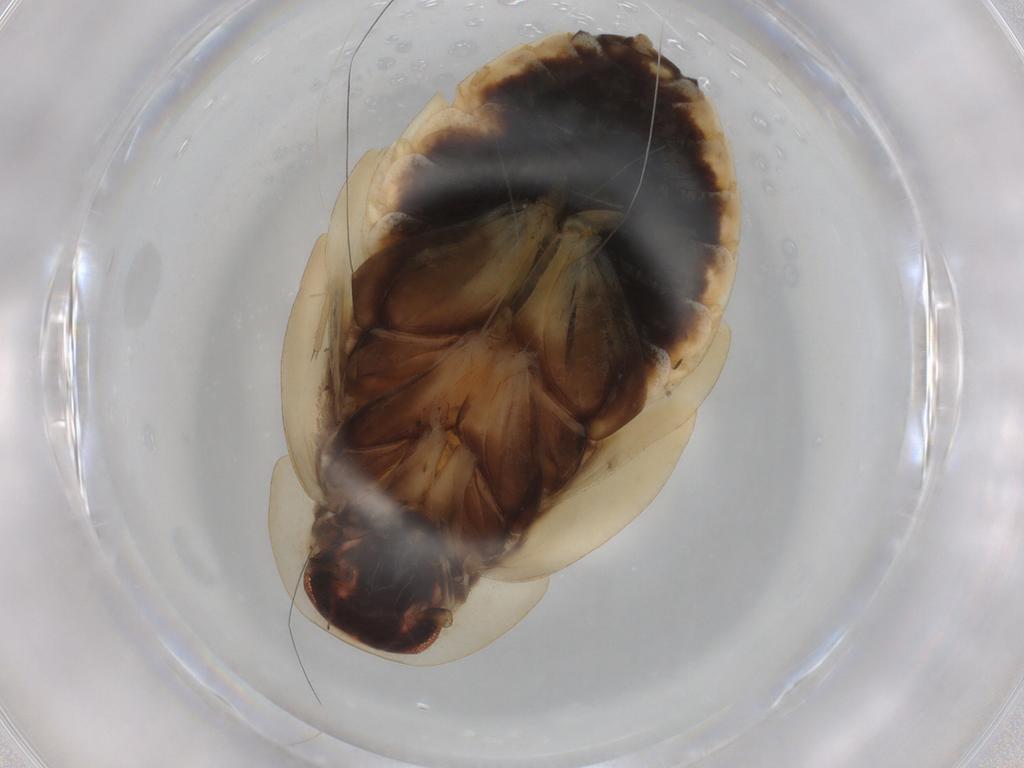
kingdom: Animalia
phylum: Arthropoda
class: Insecta
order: Blattodea
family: Ectobiidae
